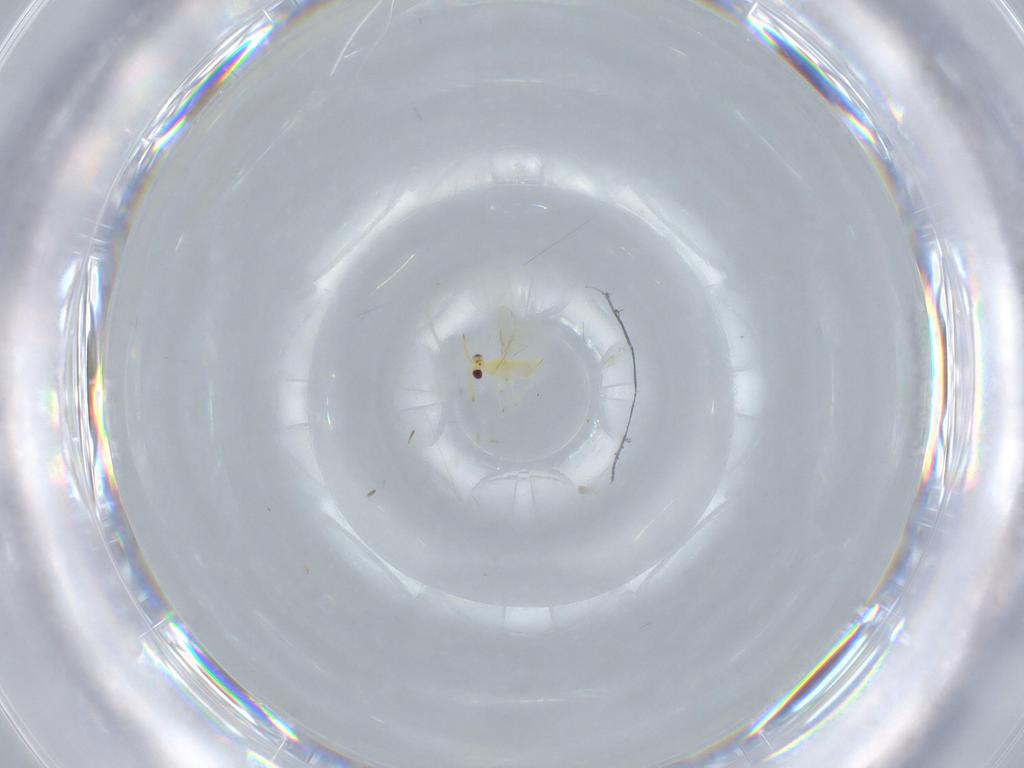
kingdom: Animalia
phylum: Arthropoda
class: Insecta
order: Hymenoptera
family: Aphelinidae
